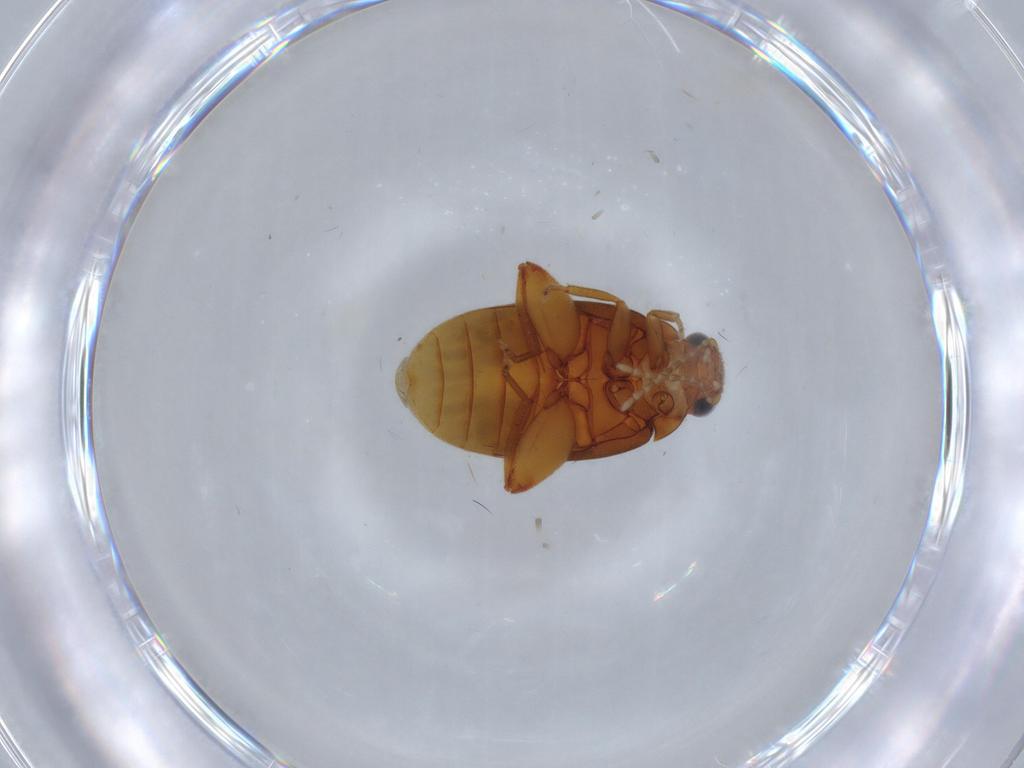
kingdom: Animalia
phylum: Arthropoda
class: Insecta
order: Coleoptera
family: Scirtidae
